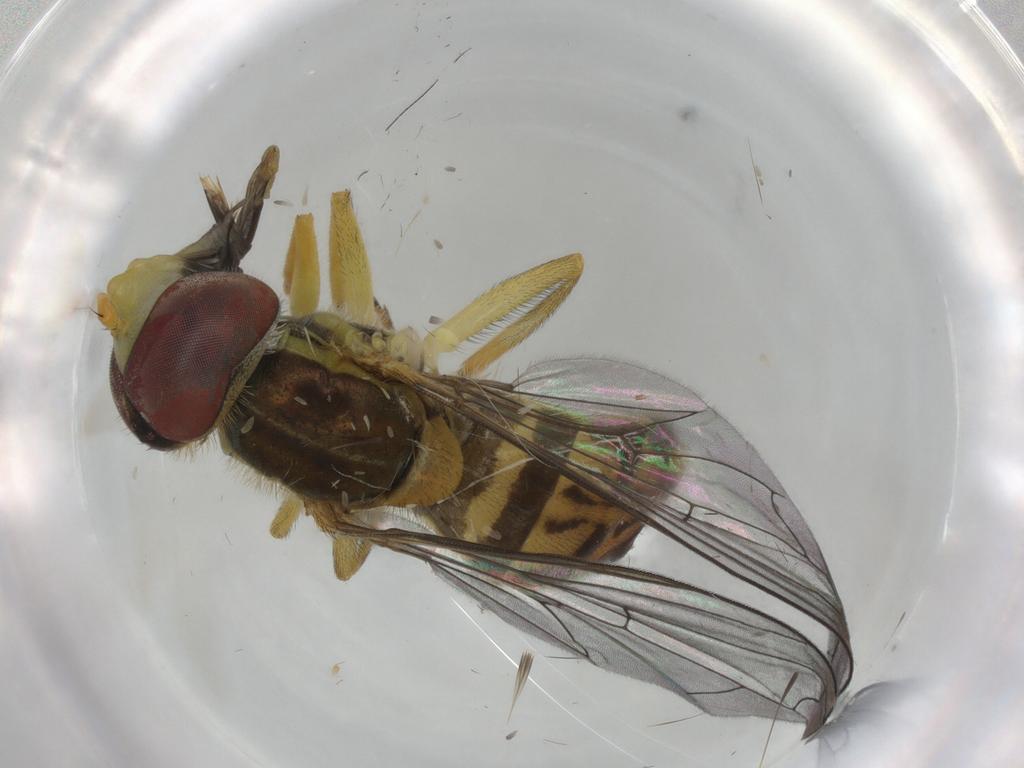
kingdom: Animalia
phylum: Arthropoda
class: Insecta
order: Diptera
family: Syrphidae
